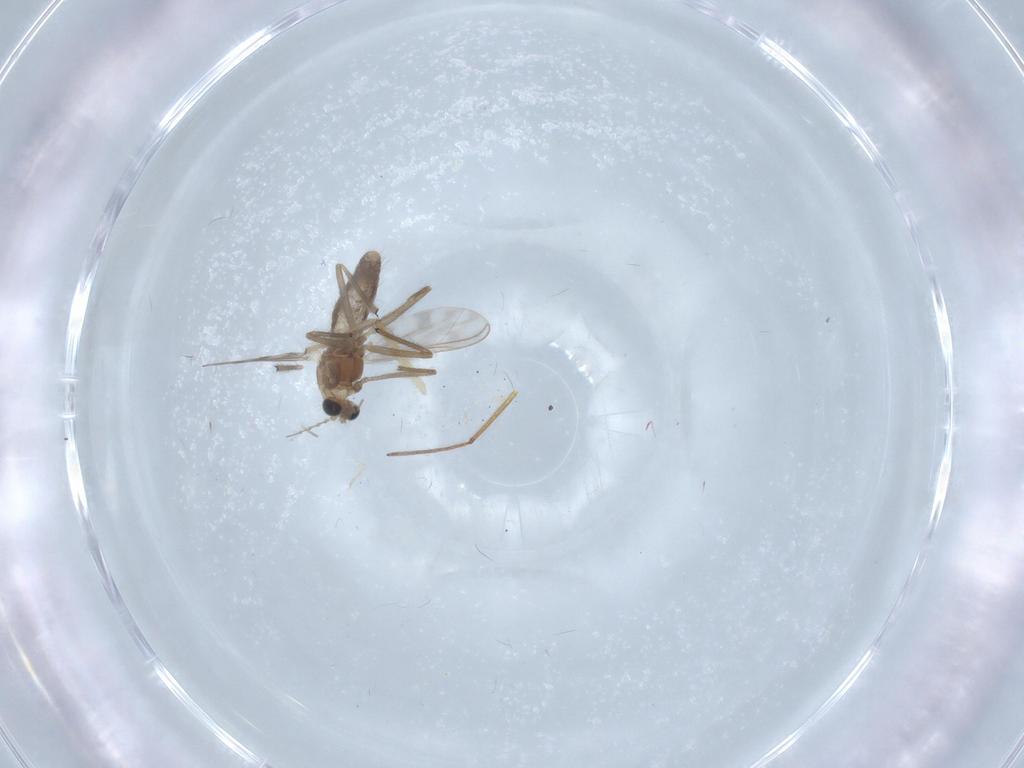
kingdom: Animalia
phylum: Arthropoda
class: Insecta
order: Diptera
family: Chironomidae
